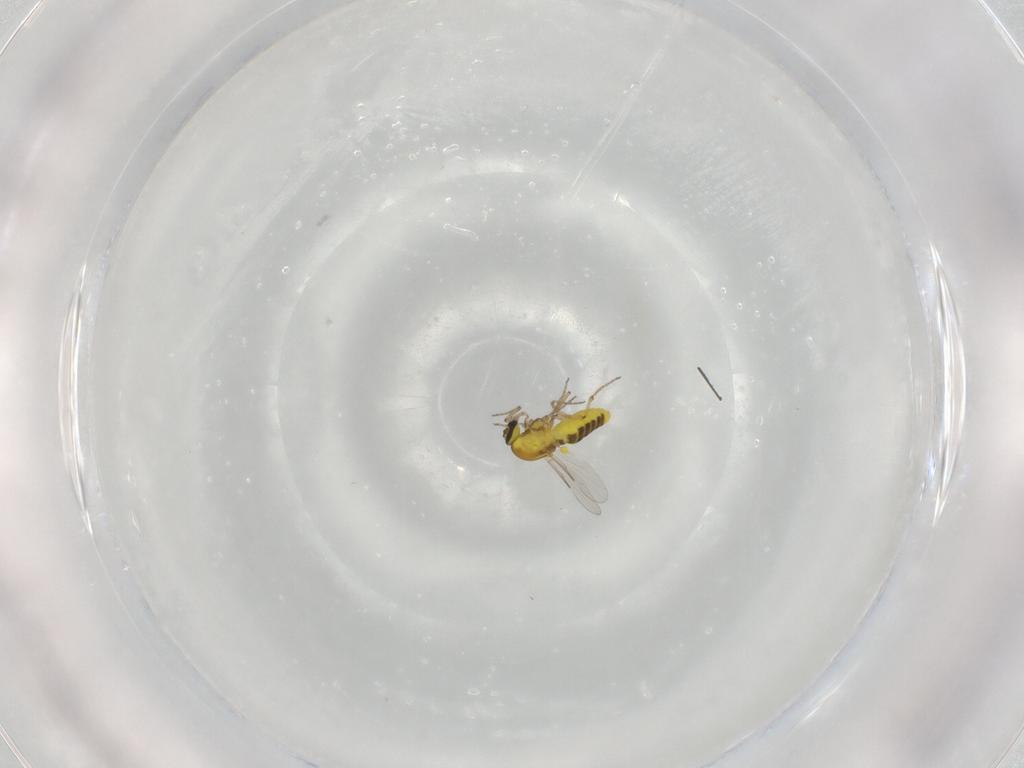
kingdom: Animalia
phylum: Arthropoda
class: Insecta
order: Diptera
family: Ceratopogonidae
